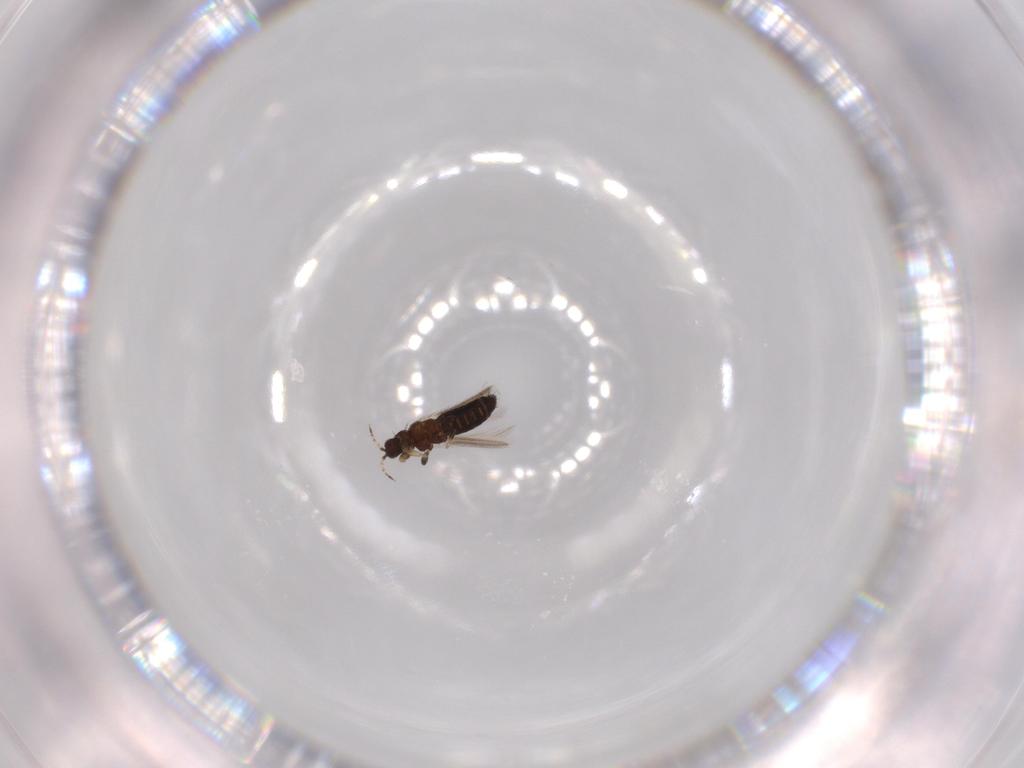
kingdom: Animalia
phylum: Arthropoda
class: Insecta
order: Thysanoptera
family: Thripidae
